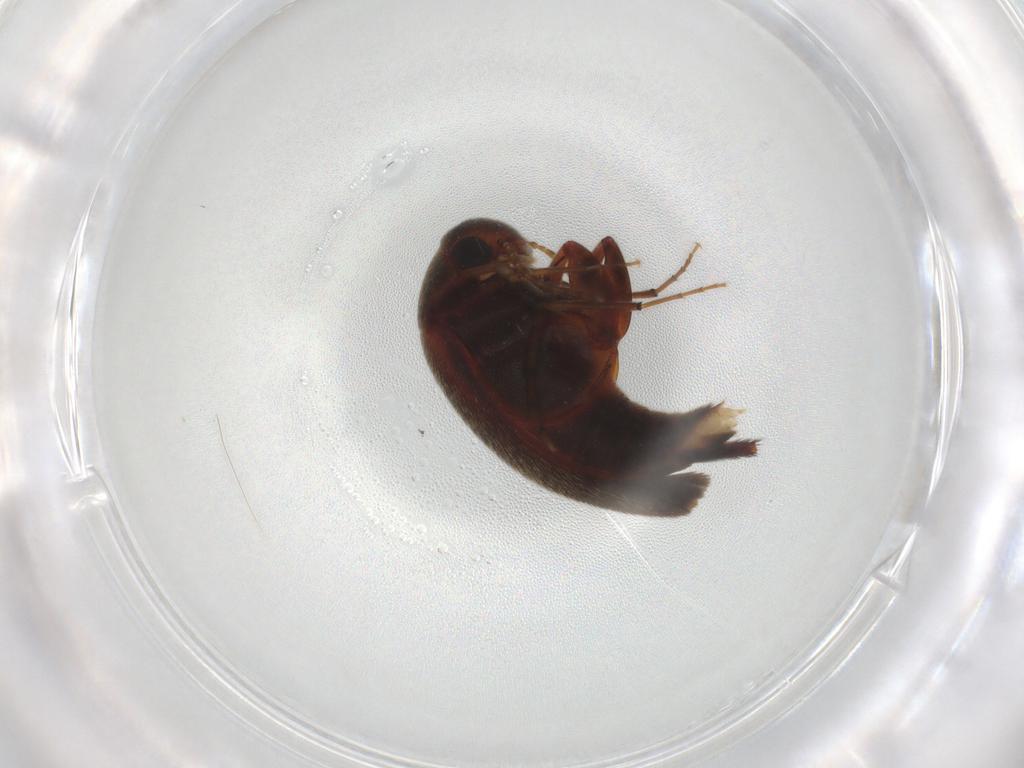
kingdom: Animalia
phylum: Arthropoda
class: Insecta
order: Coleoptera
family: Mordellidae
